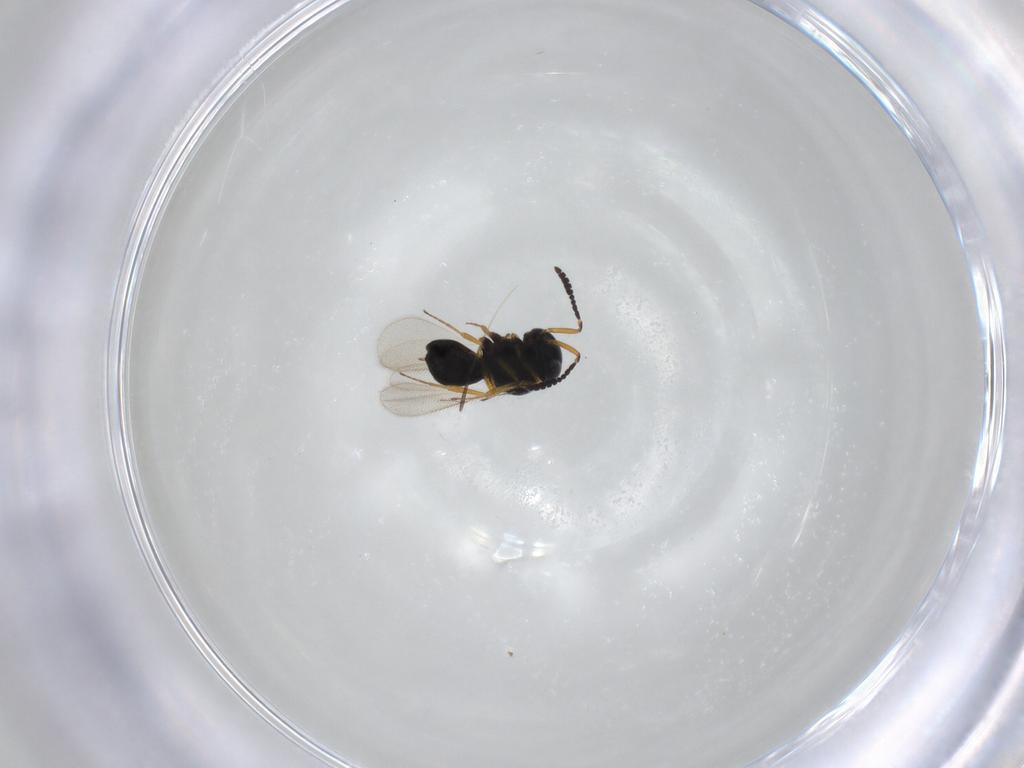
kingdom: Animalia
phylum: Arthropoda
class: Insecta
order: Hymenoptera
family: Scelionidae
